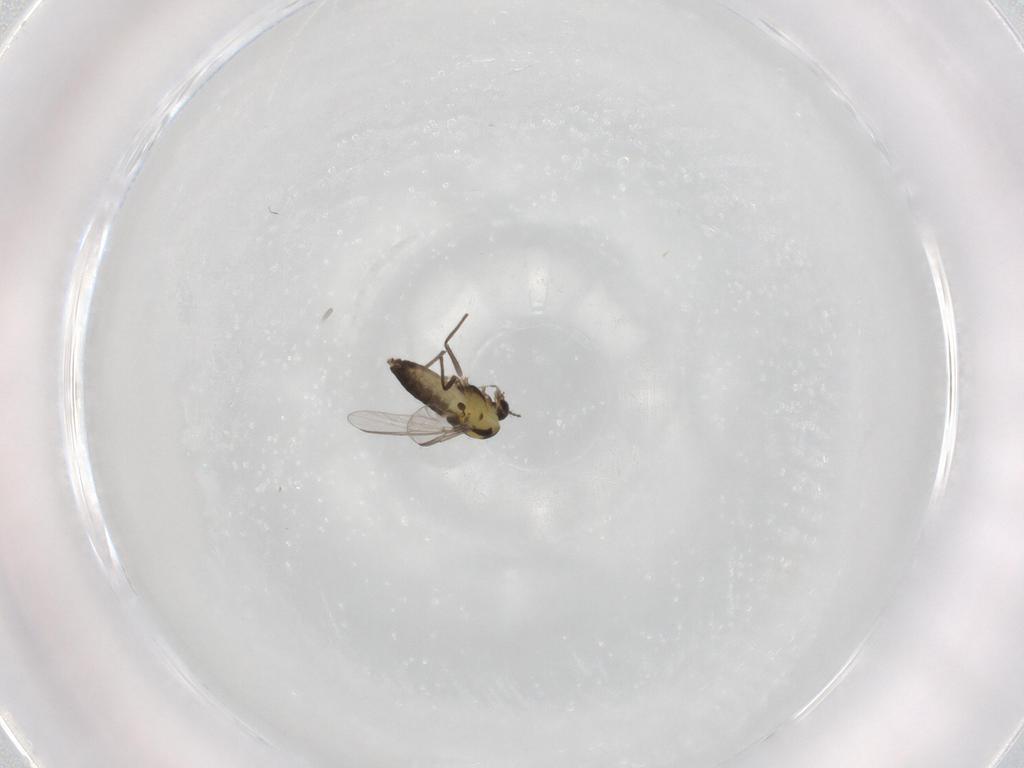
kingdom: Animalia
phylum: Arthropoda
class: Insecta
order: Diptera
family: Chironomidae
